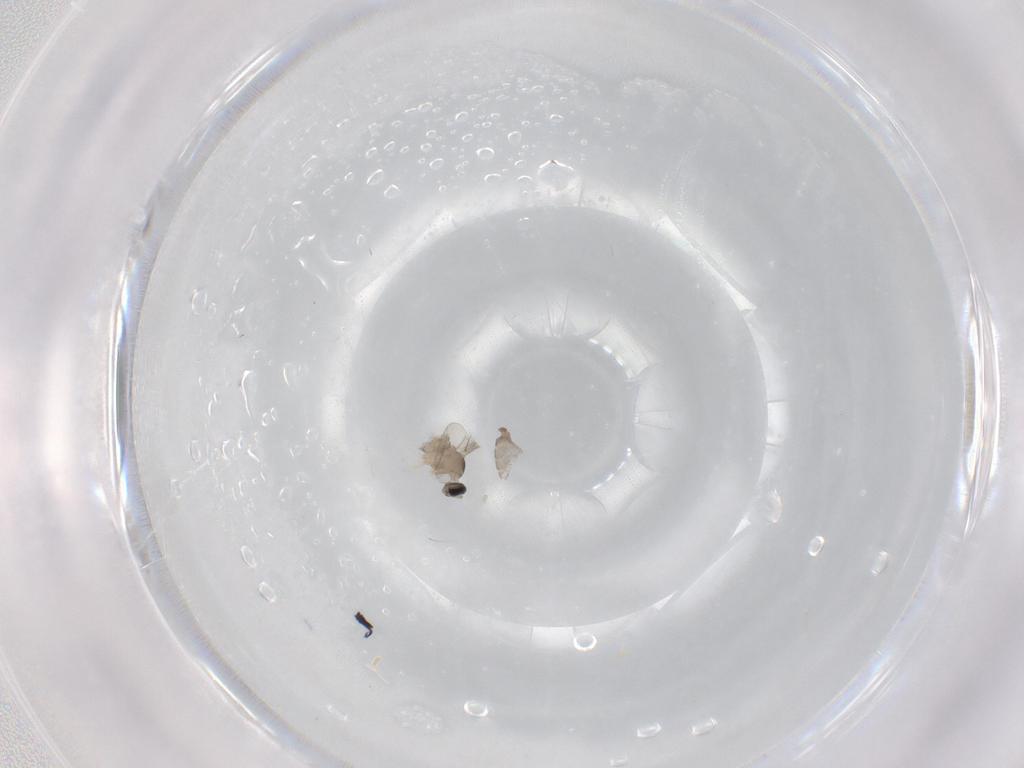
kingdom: Animalia
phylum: Arthropoda
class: Insecta
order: Diptera
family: Cecidomyiidae
